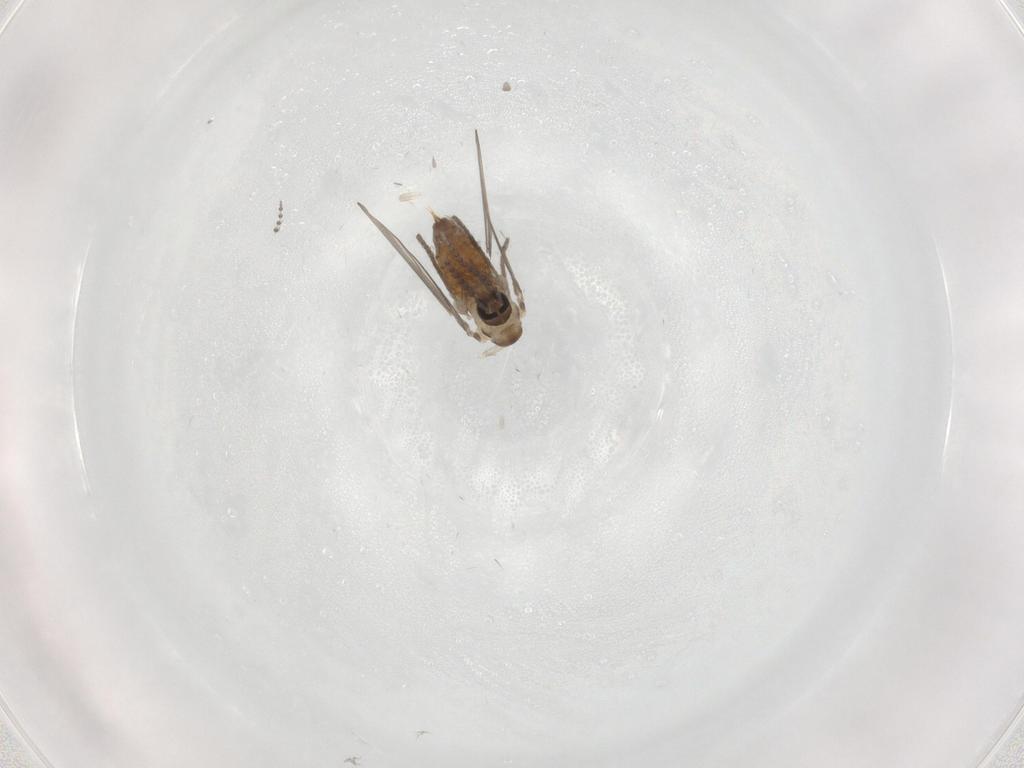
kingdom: Animalia
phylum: Arthropoda
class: Insecta
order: Diptera
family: Psychodidae
